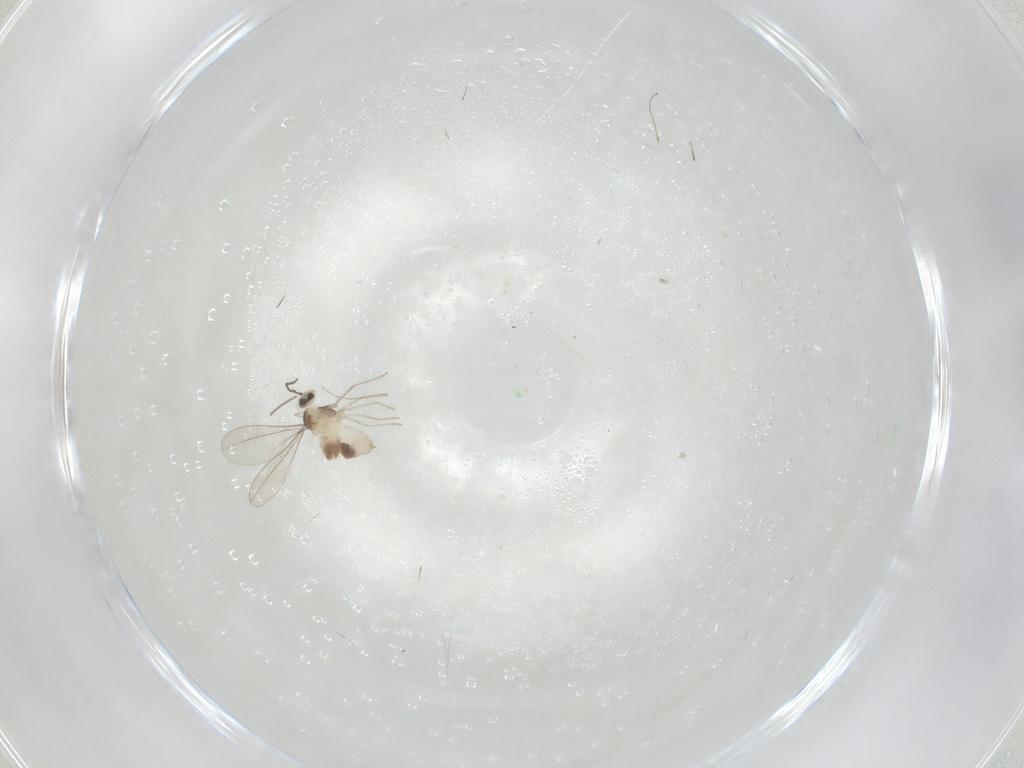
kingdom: Animalia
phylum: Arthropoda
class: Insecta
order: Diptera
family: Cecidomyiidae
